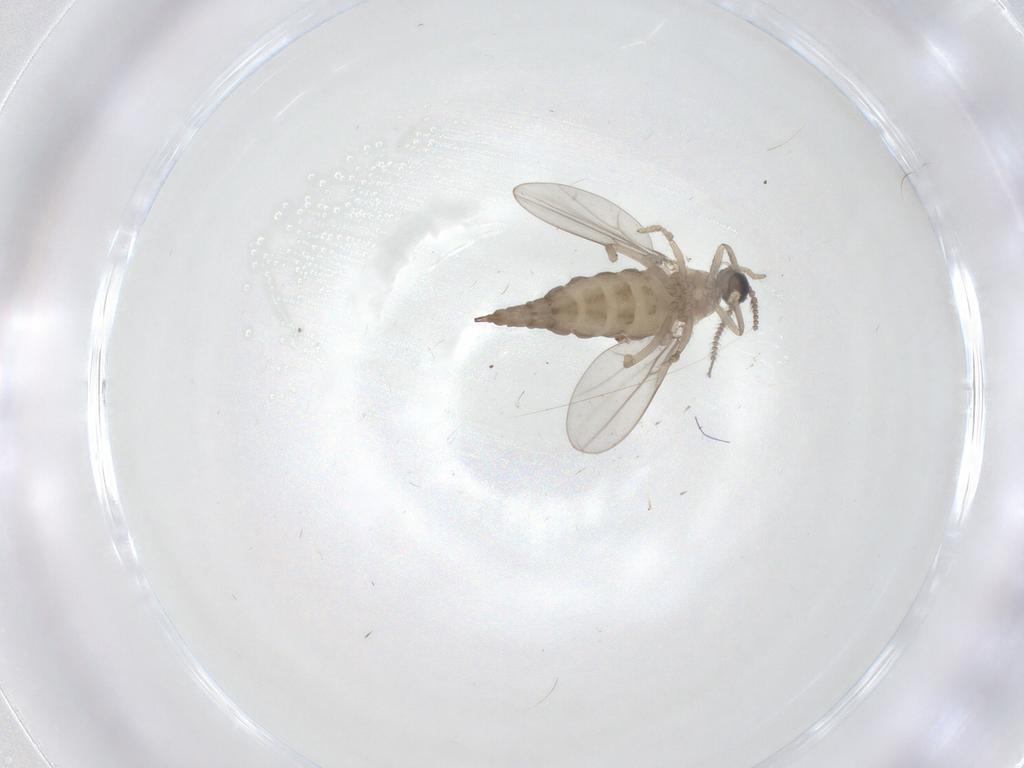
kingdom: Animalia
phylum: Arthropoda
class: Insecta
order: Diptera
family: Cecidomyiidae
